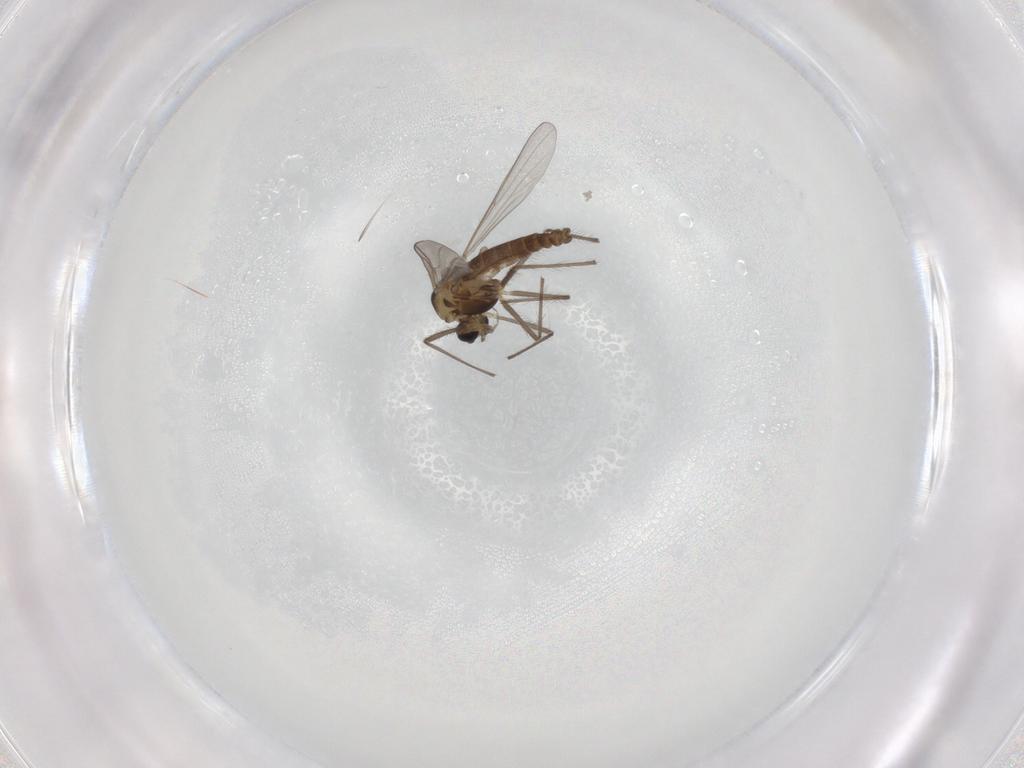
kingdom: Animalia
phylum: Arthropoda
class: Insecta
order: Diptera
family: Chironomidae
